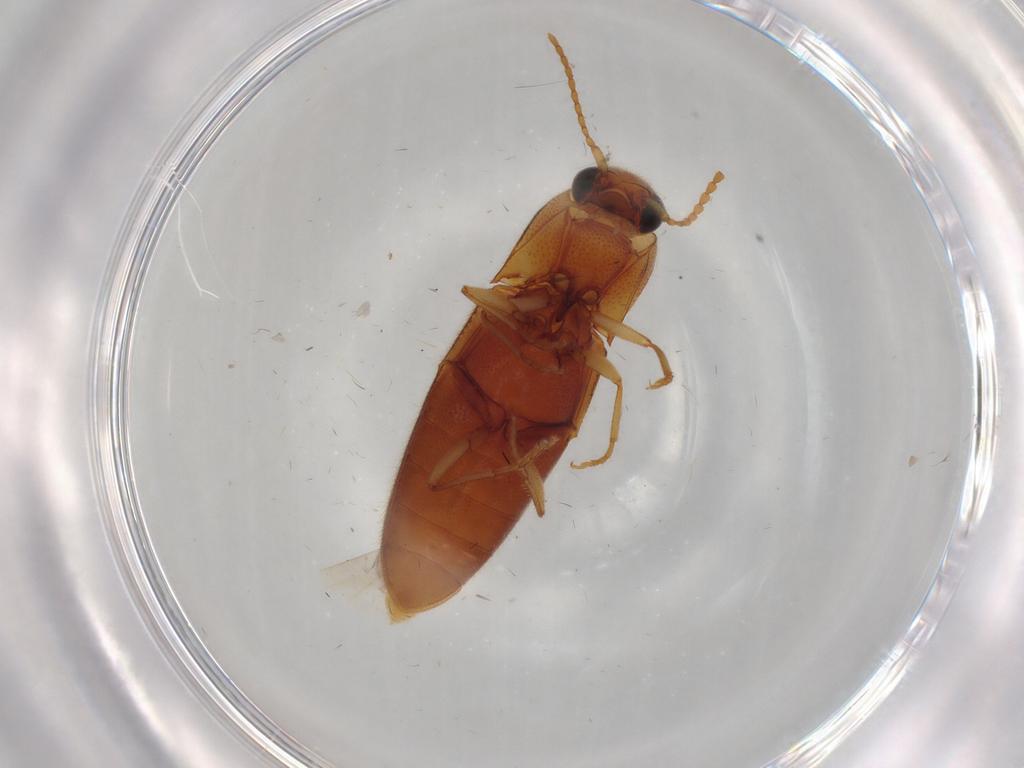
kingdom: Animalia
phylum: Arthropoda
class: Insecta
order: Coleoptera
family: Elateridae
